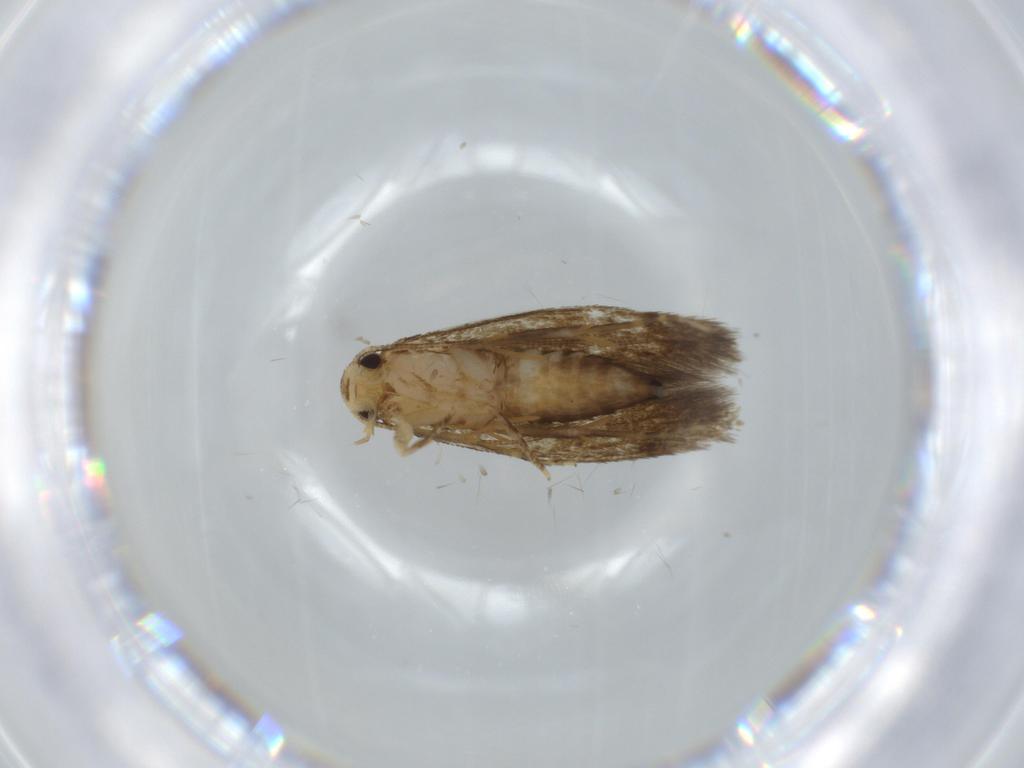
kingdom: Animalia
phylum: Arthropoda
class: Insecta
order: Lepidoptera
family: Tineidae
